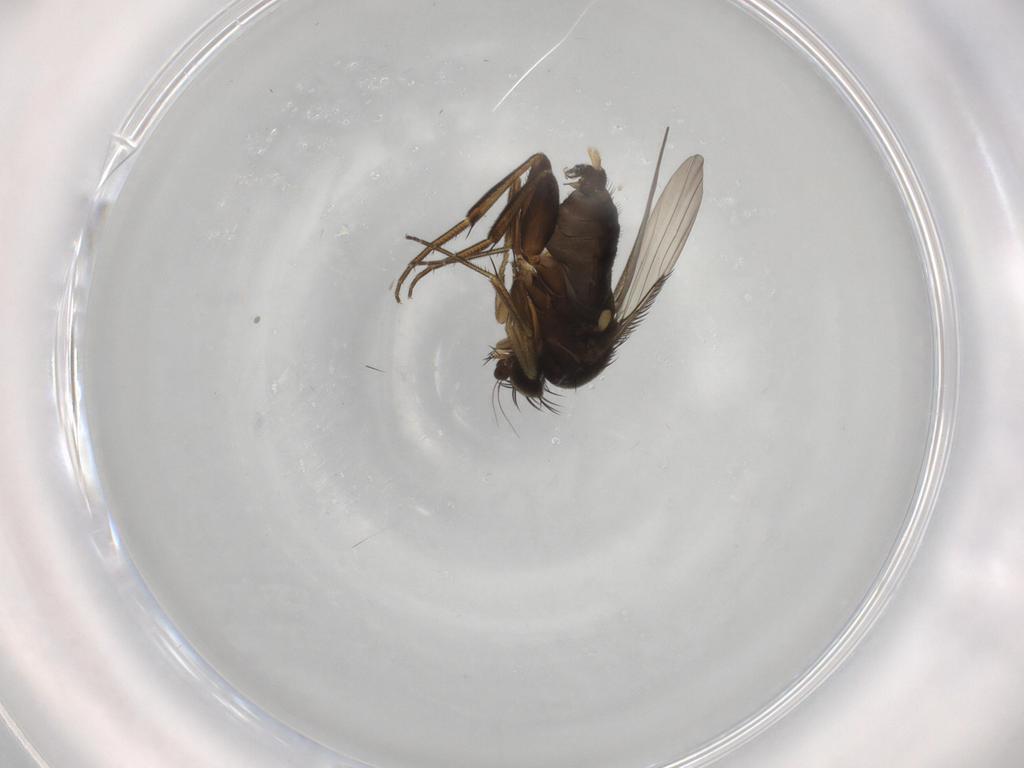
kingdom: Animalia
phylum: Arthropoda
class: Insecta
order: Diptera
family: Phoridae
